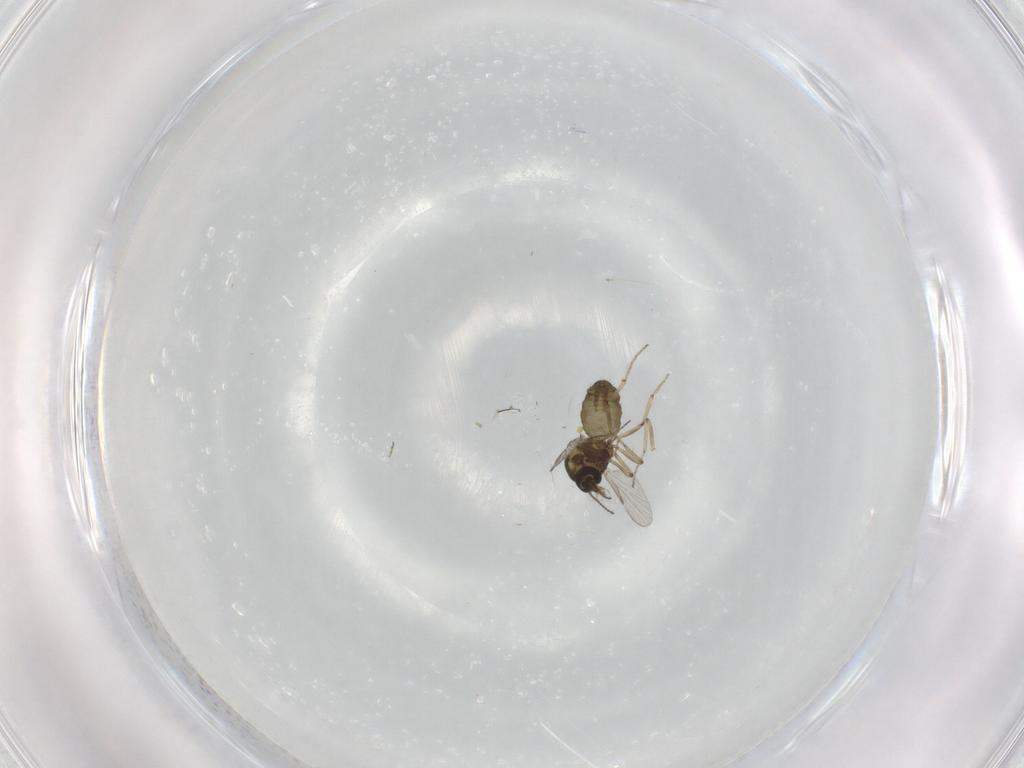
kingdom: Animalia
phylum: Arthropoda
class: Insecta
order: Diptera
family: Ceratopogonidae
